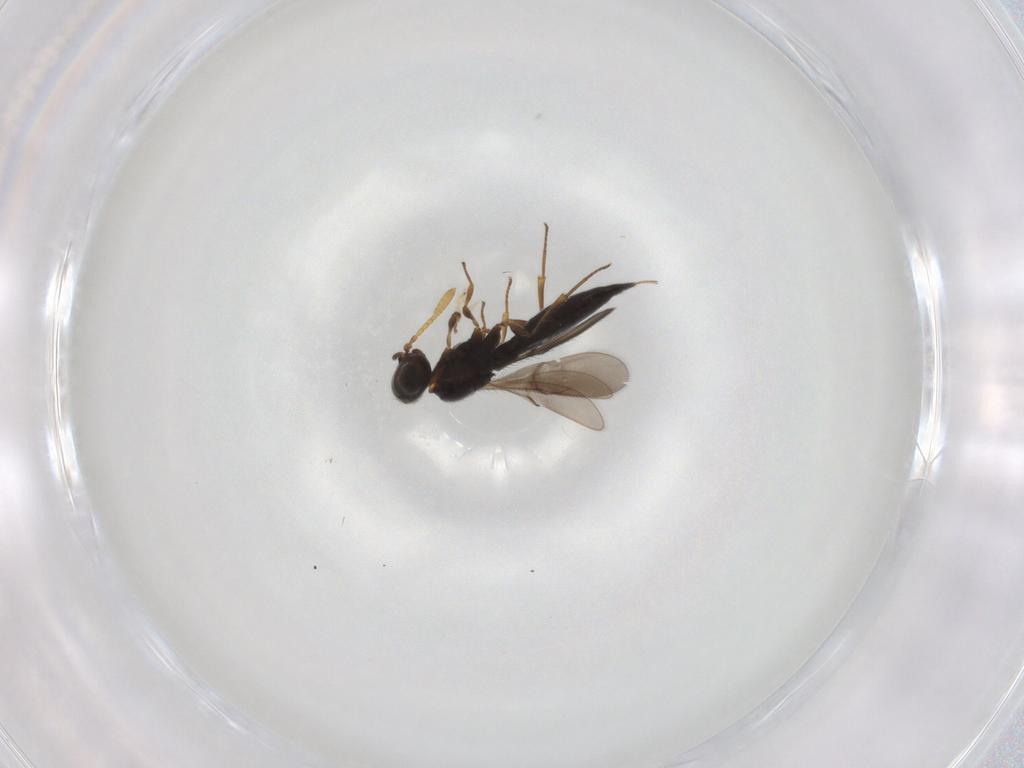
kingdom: Animalia
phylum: Arthropoda
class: Insecta
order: Hymenoptera
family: Scelionidae
